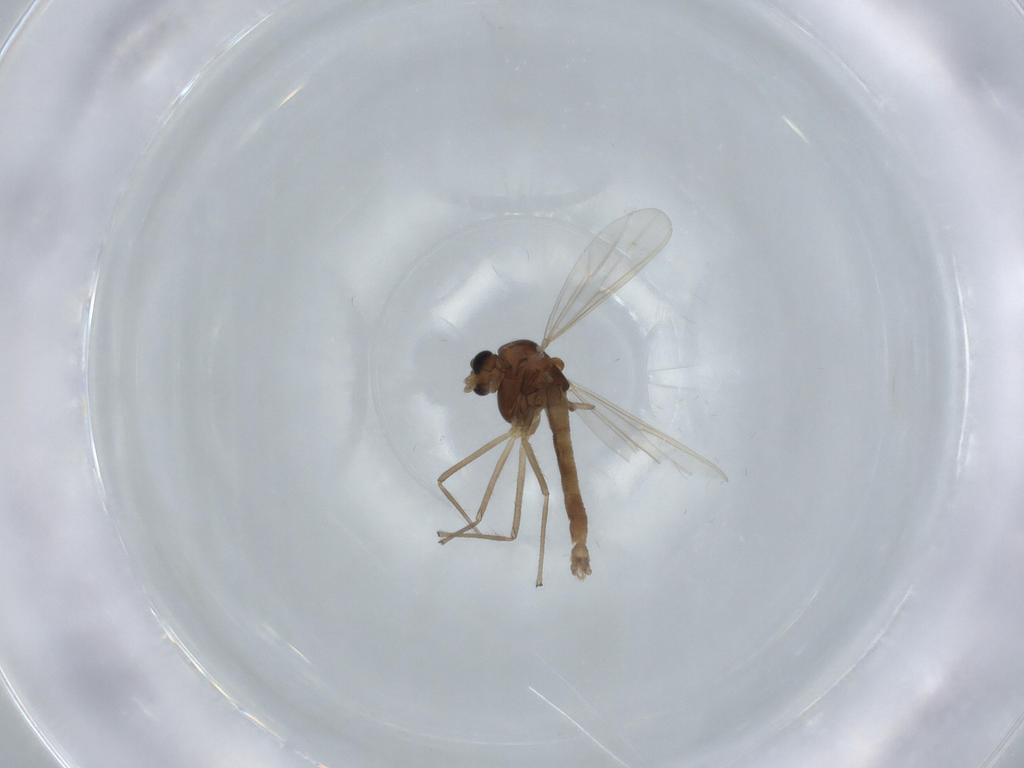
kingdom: Animalia
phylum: Arthropoda
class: Insecta
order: Diptera
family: Chironomidae
